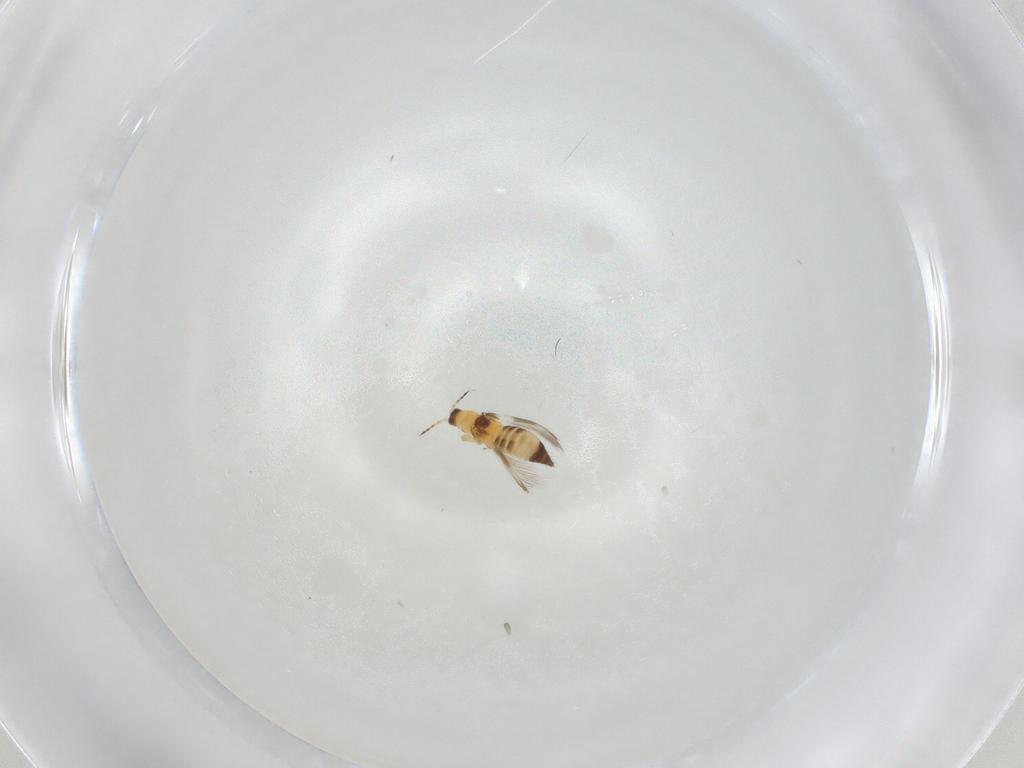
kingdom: Animalia
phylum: Arthropoda
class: Insecta
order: Thysanoptera
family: Thripidae
